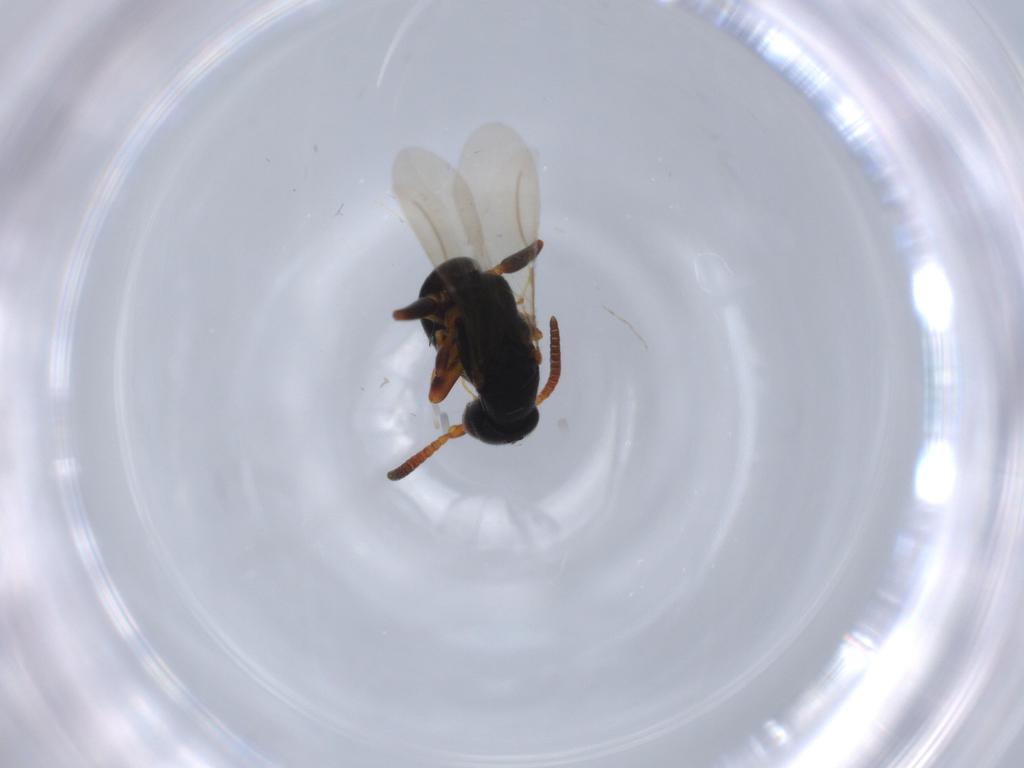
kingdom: Animalia
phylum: Arthropoda
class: Insecta
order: Hymenoptera
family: Bethylidae
